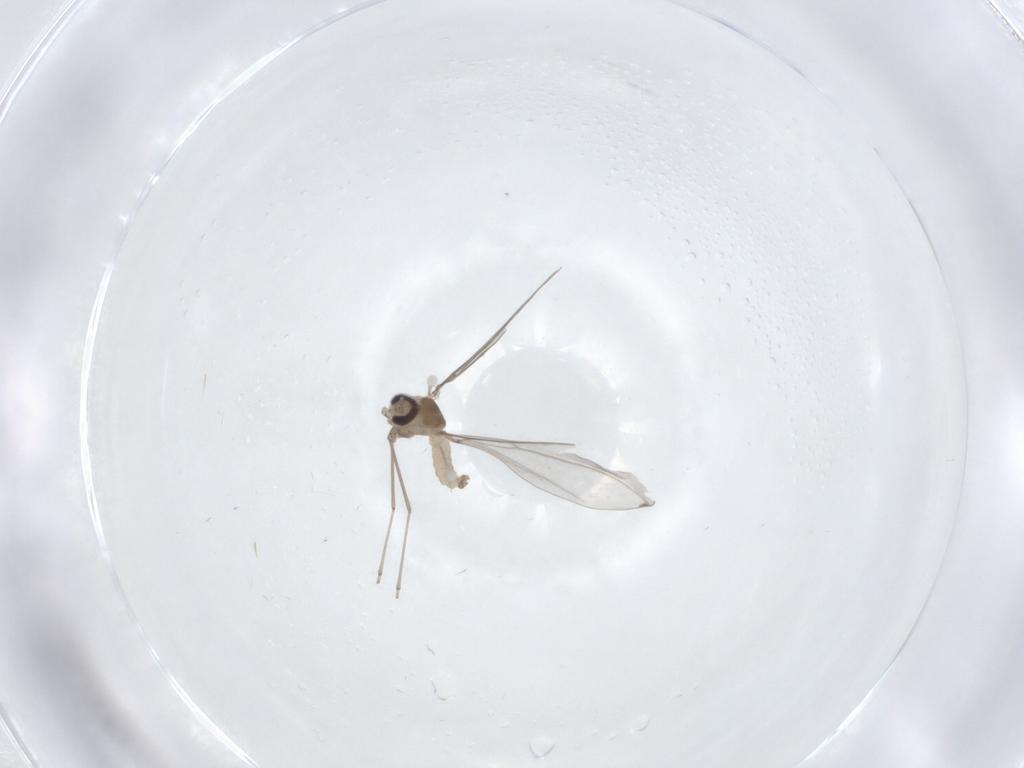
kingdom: Animalia
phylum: Arthropoda
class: Insecta
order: Diptera
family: Cecidomyiidae
